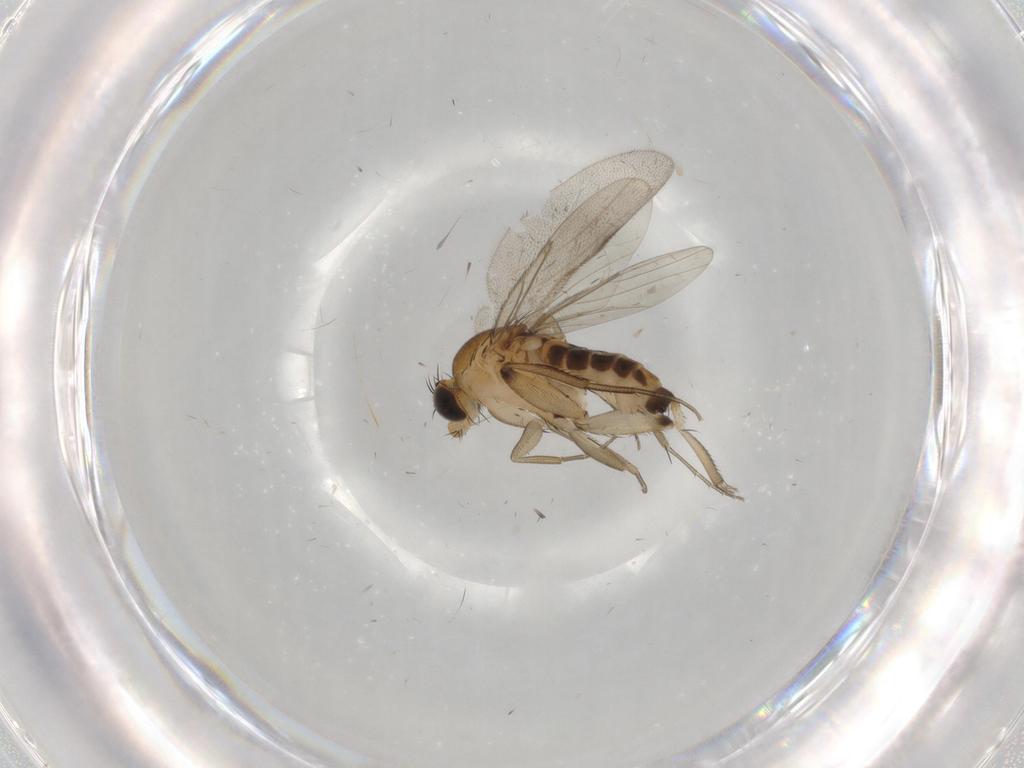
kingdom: Animalia
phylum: Arthropoda
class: Insecta
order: Diptera
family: Phoridae
